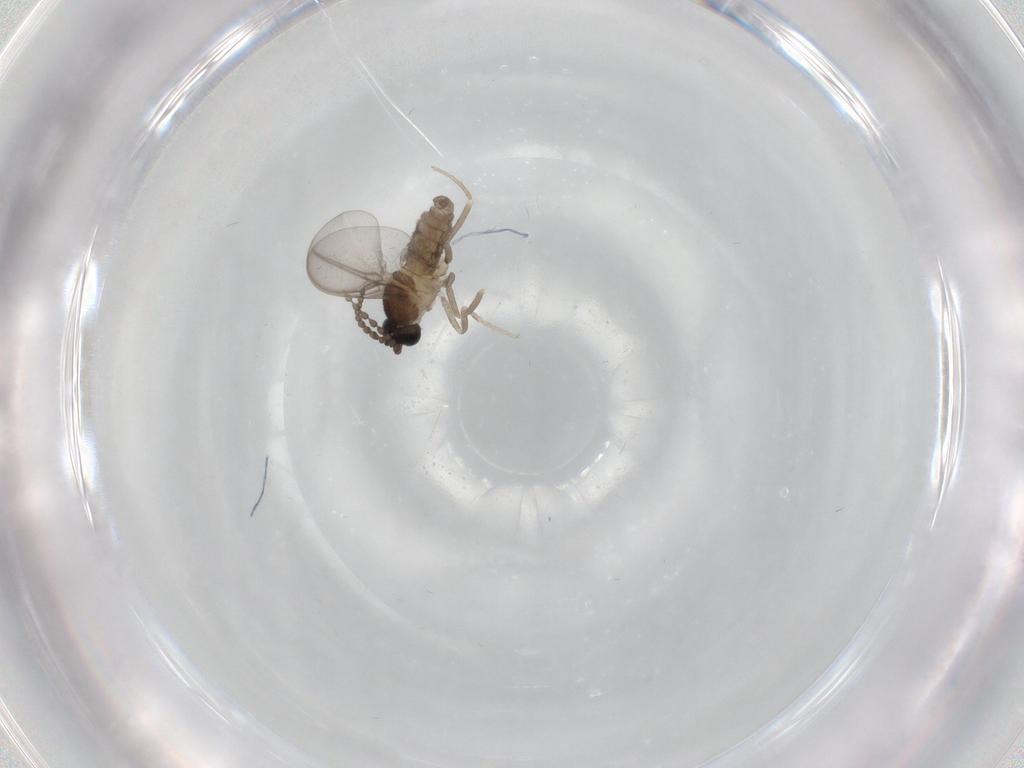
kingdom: Animalia
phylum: Arthropoda
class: Insecta
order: Diptera
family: Cecidomyiidae
